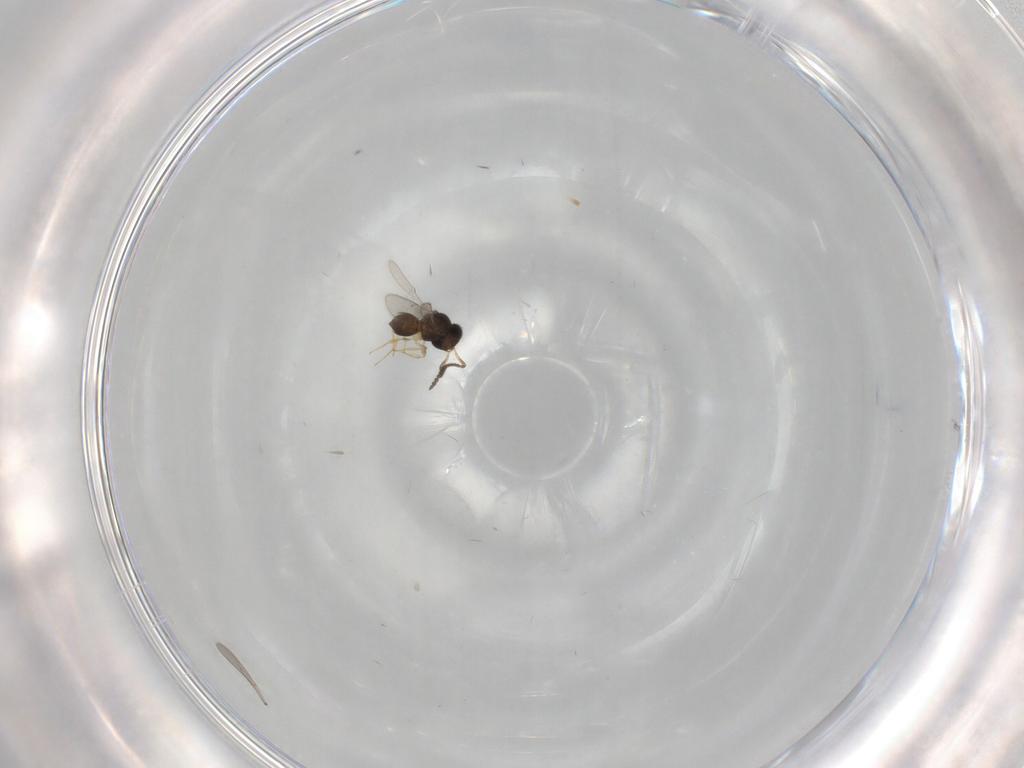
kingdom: Animalia
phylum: Arthropoda
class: Insecta
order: Hymenoptera
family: Scelionidae
